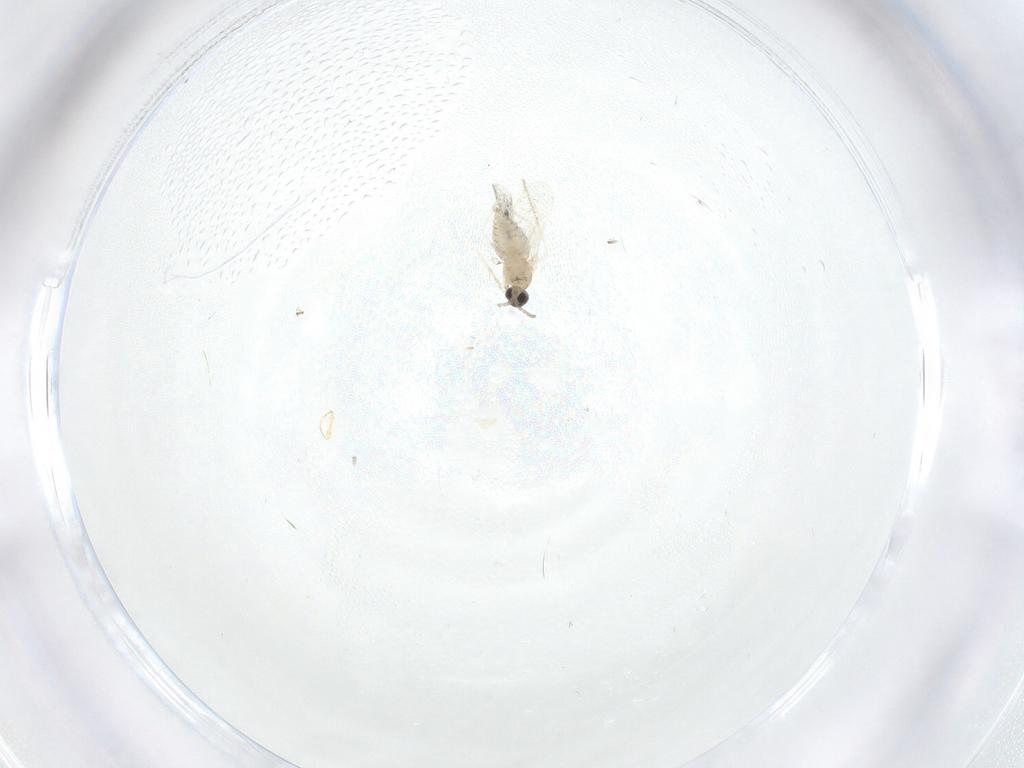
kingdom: Animalia
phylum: Arthropoda
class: Insecta
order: Diptera
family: Cecidomyiidae
